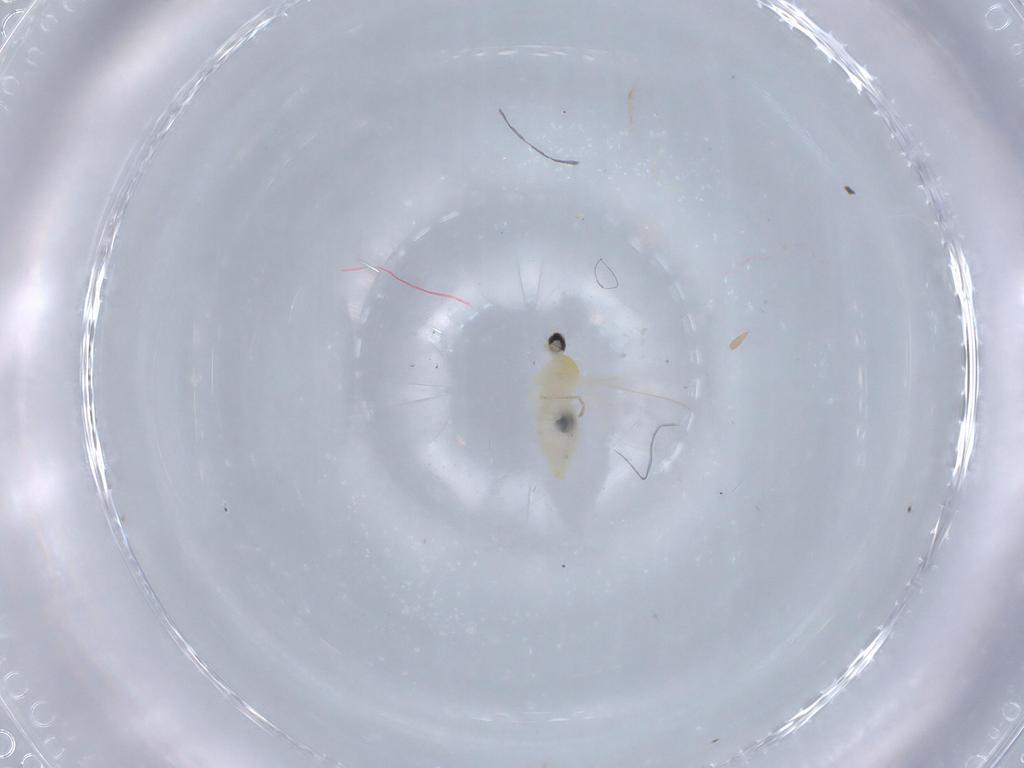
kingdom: Animalia
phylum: Arthropoda
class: Insecta
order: Diptera
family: Cecidomyiidae
